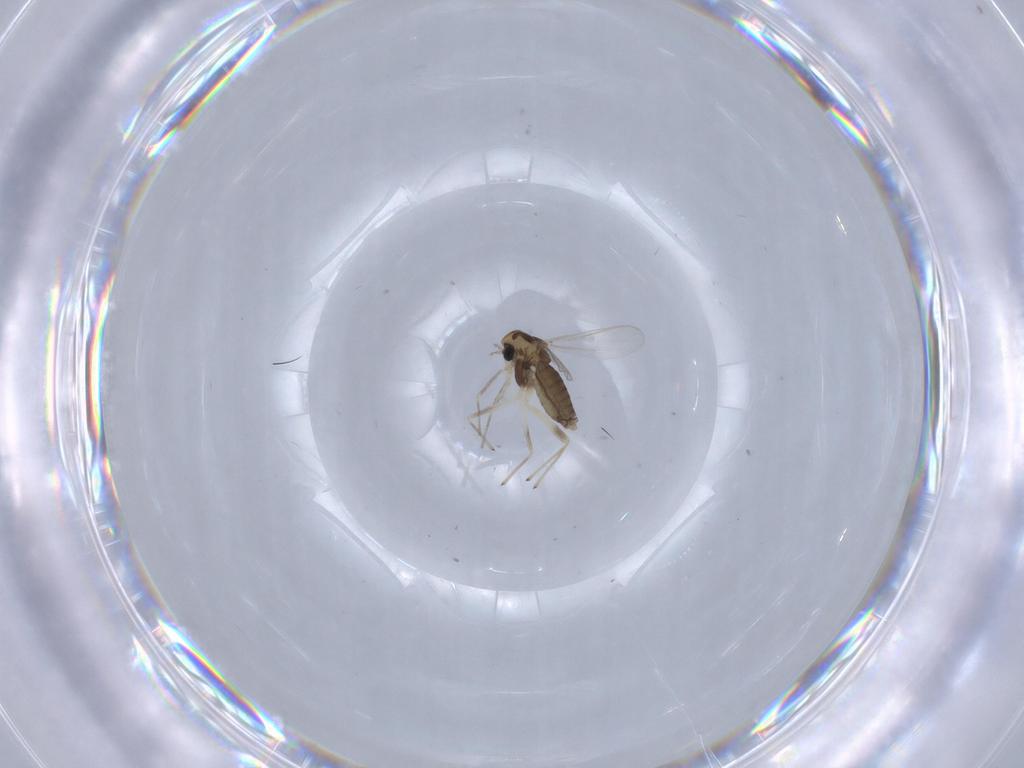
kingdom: Animalia
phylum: Arthropoda
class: Insecta
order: Diptera
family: Chironomidae
